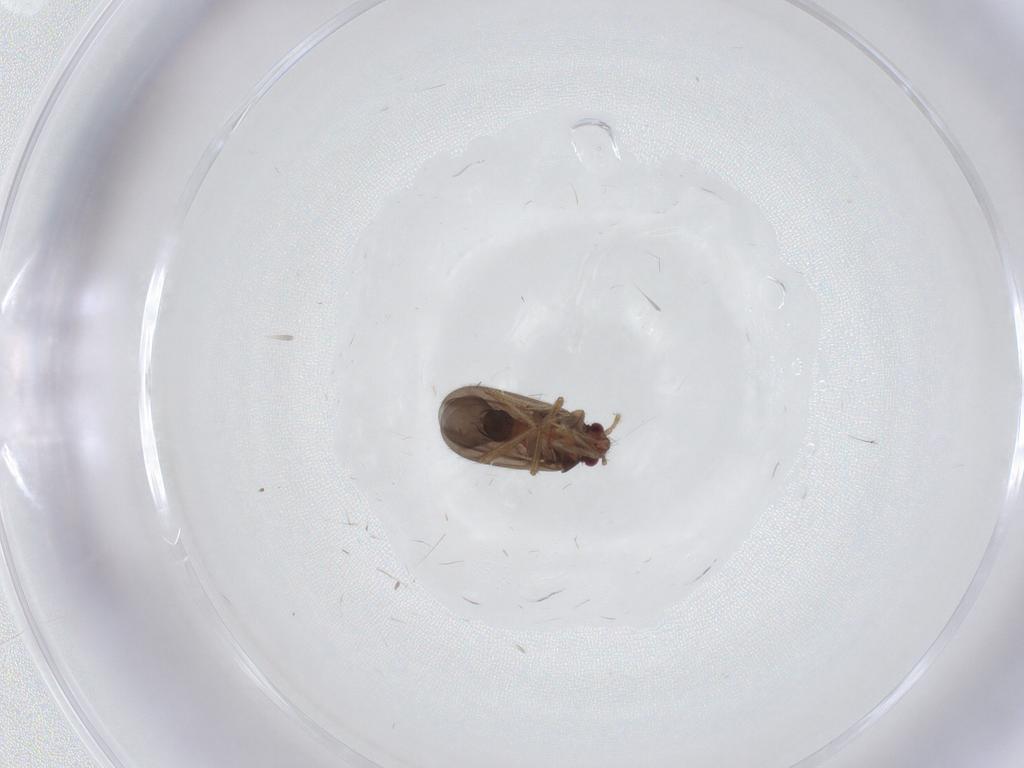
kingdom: Animalia
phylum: Arthropoda
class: Insecta
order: Hemiptera
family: Ceratocombidae
